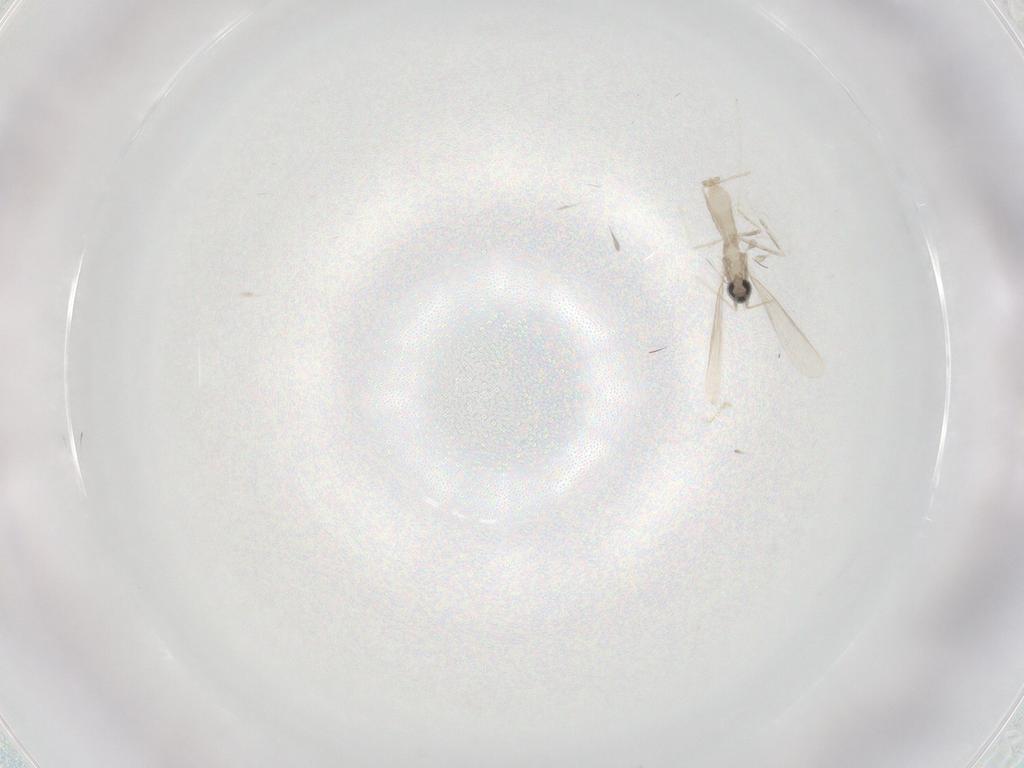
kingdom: Animalia
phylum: Arthropoda
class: Insecta
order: Diptera
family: Cecidomyiidae
